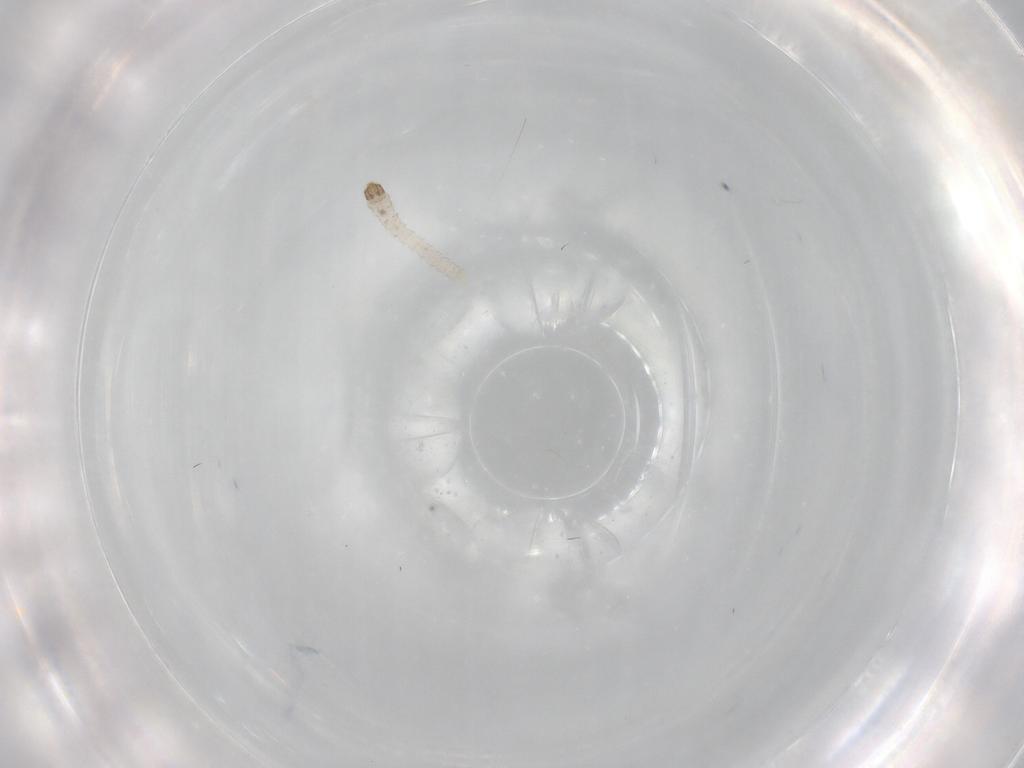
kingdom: Animalia
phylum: Arthropoda
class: Insecta
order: Lepidoptera
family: Tineidae
